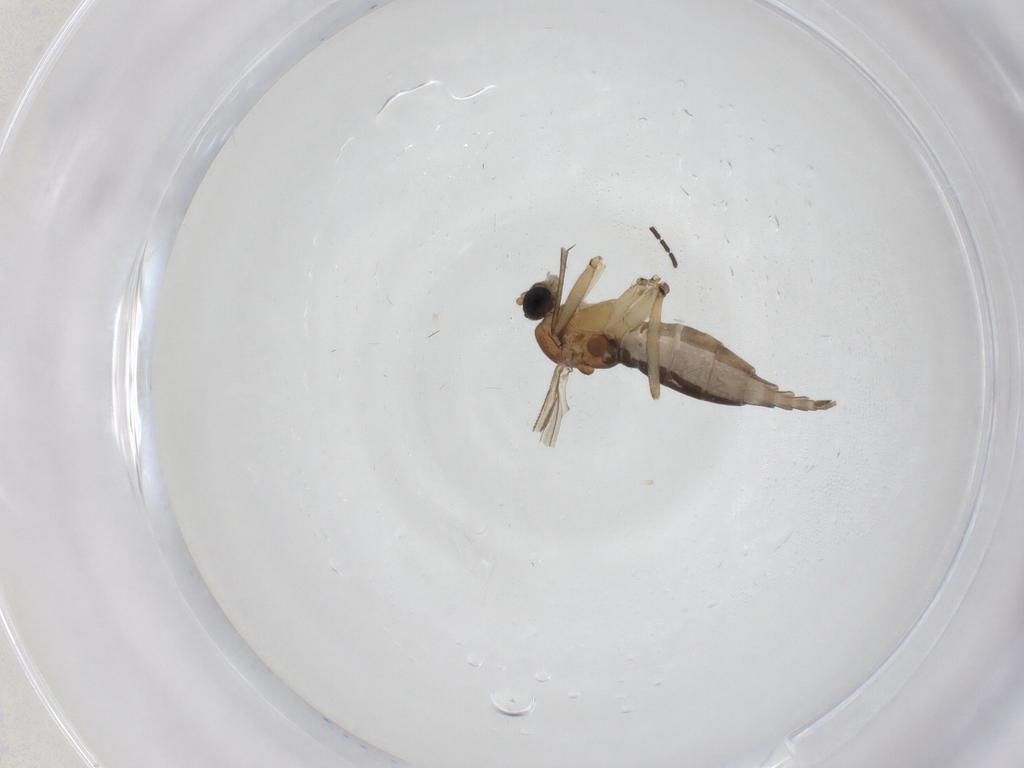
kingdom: Animalia
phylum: Arthropoda
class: Insecta
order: Diptera
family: Sciaridae
